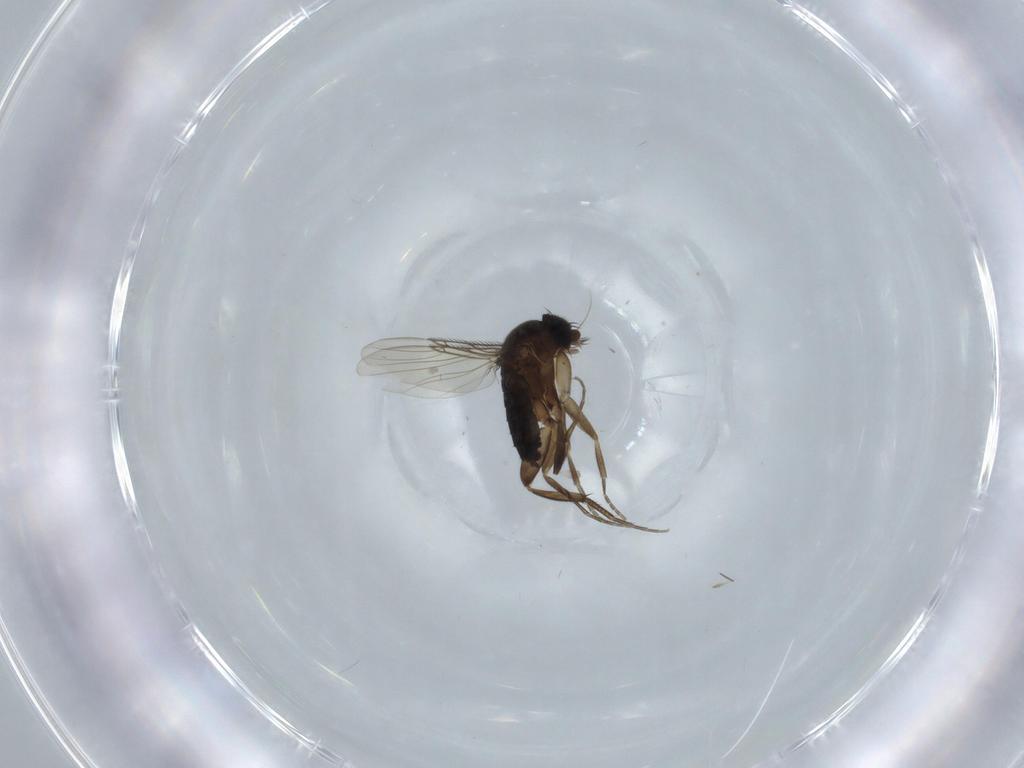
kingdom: Animalia
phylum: Arthropoda
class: Insecta
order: Diptera
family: Phoridae
